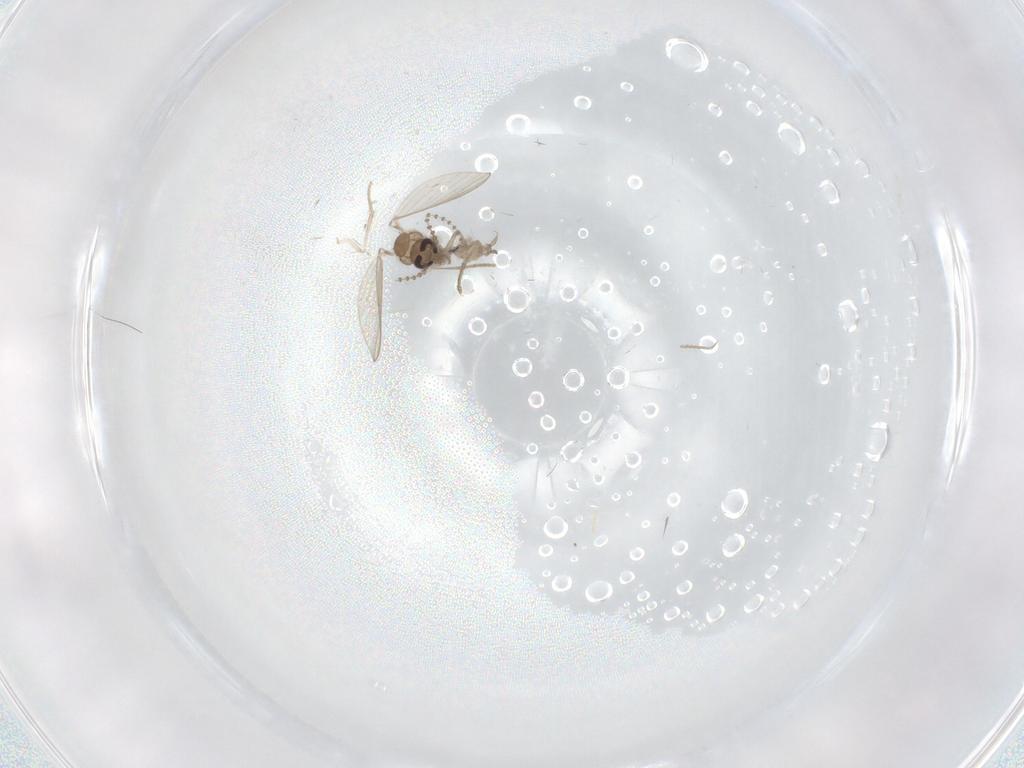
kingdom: Animalia
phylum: Arthropoda
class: Insecta
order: Diptera
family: Psychodidae
